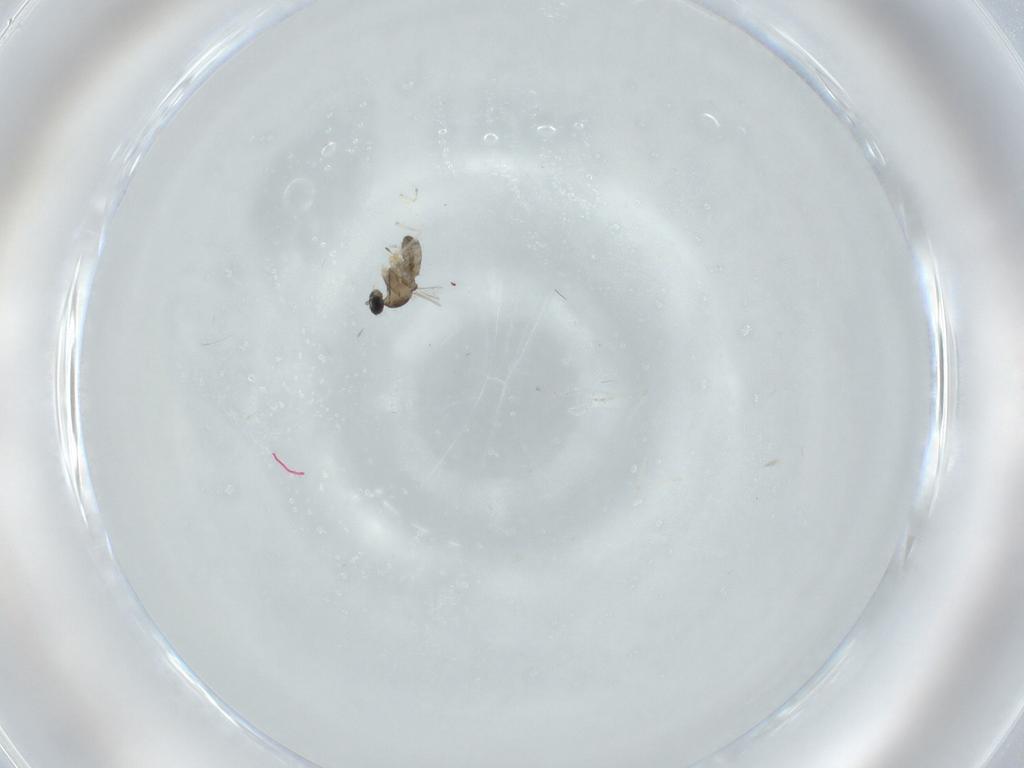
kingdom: Animalia
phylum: Arthropoda
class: Insecta
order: Diptera
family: Cecidomyiidae
